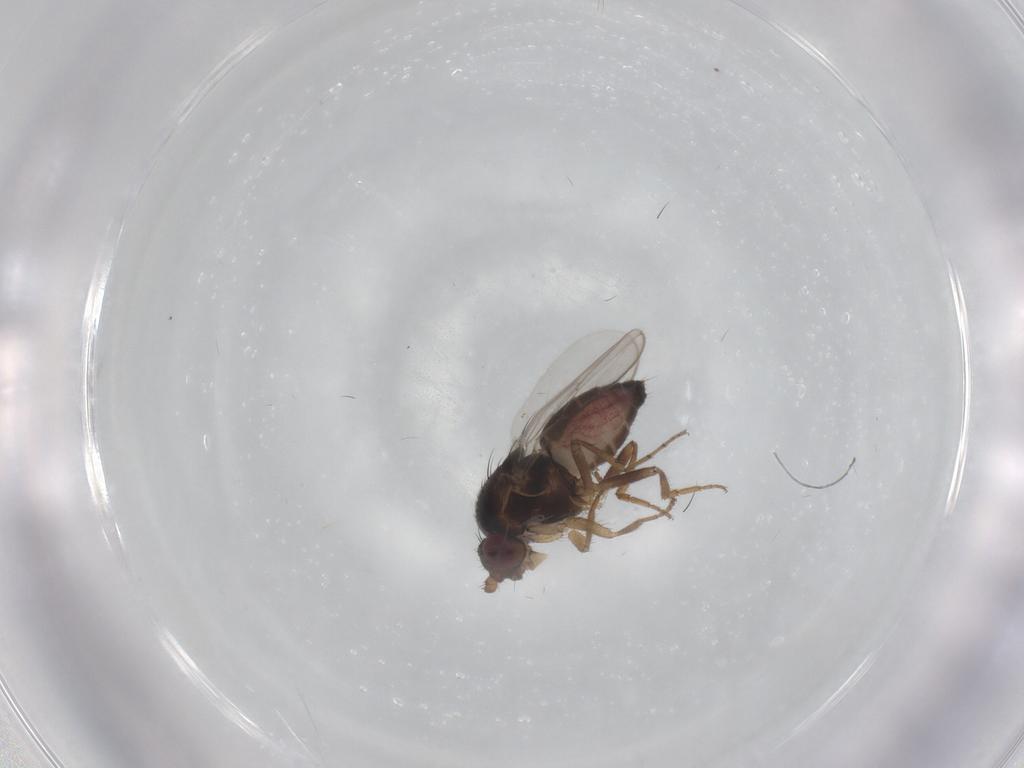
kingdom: Animalia
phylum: Arthropoda
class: Insecta
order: Diptera
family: Sphaeroceridae
